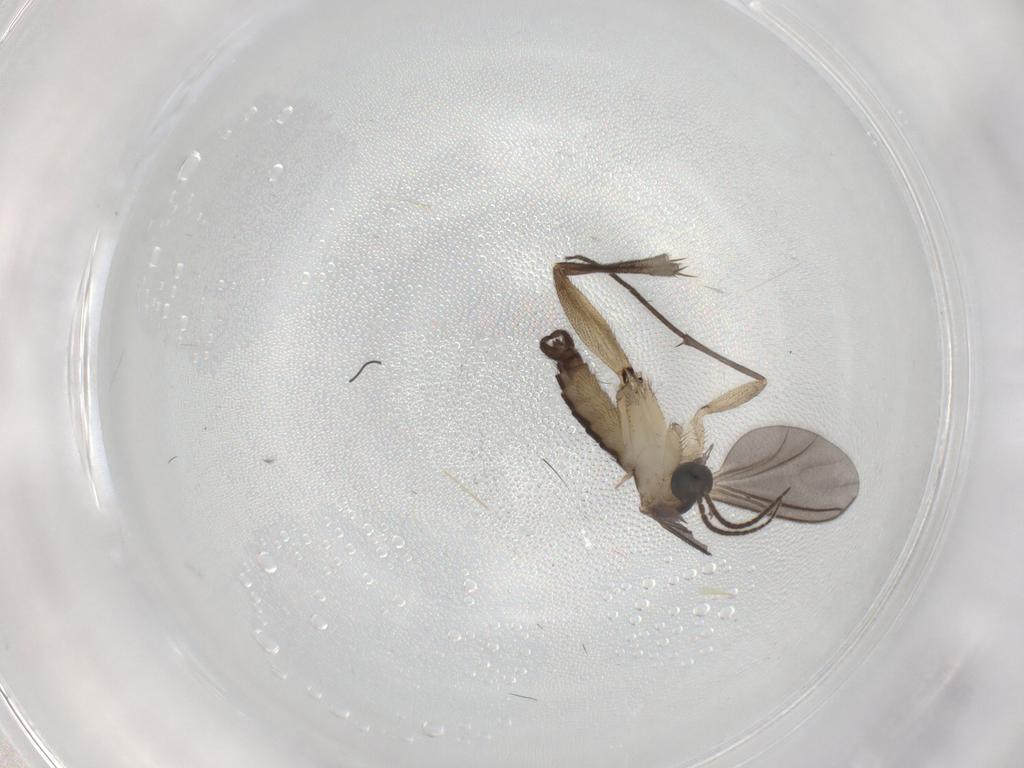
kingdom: Animalia
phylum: Arthropoda
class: Insecta
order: Diptera
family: Sciaridae
